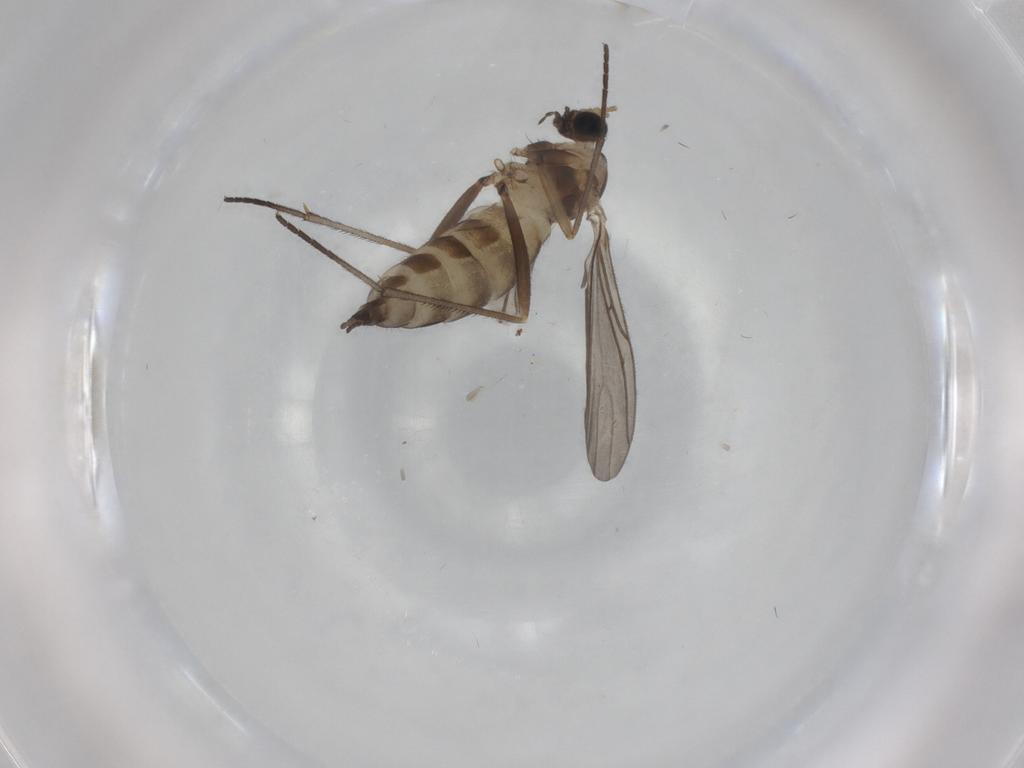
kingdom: Animalia
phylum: Arthropoda
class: Insecta
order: Diptera
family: Sciaridae
